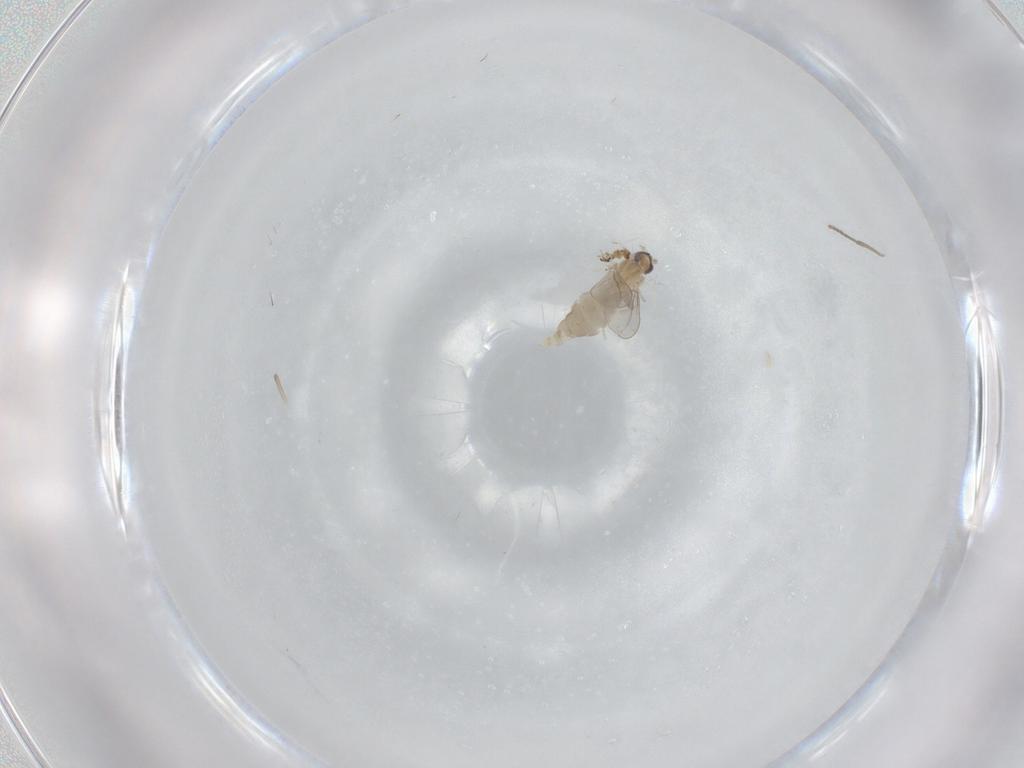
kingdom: Animalia
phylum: Arthropoda
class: Insecta
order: Diptera
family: Cecidomyiidae
